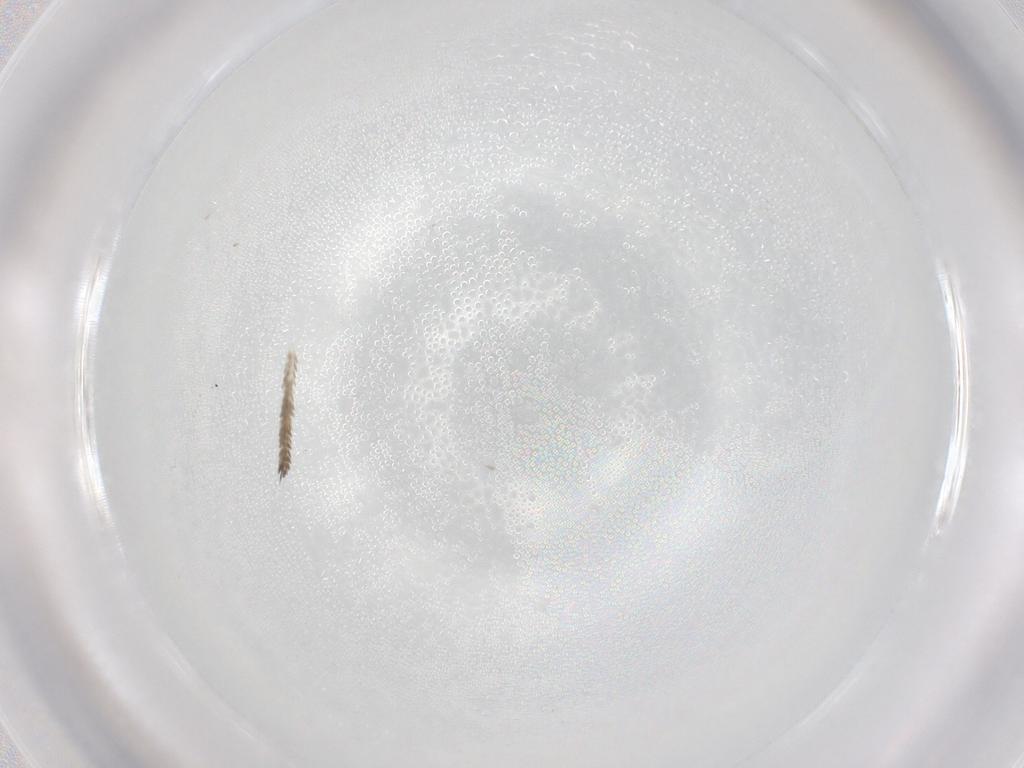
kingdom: Animalia
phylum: Arthropoda
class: Insecta
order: Lepidoptera
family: Tortricidae
